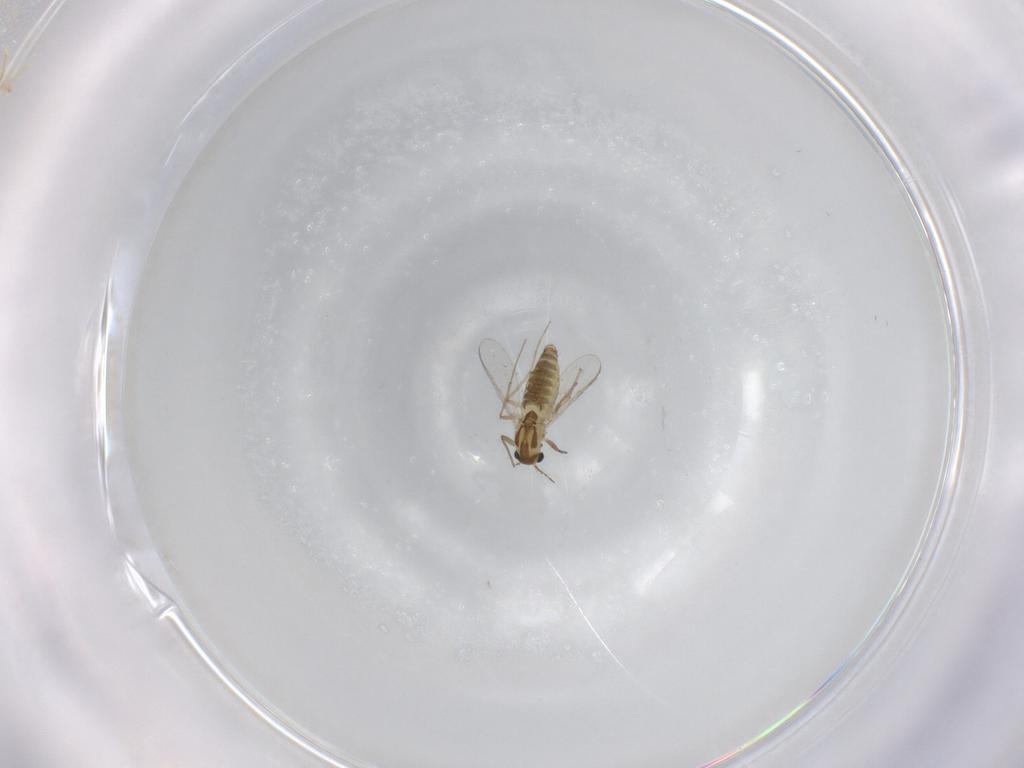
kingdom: Animalia
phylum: Arthropoda
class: Insecta
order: Diptera
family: Chironomidae
